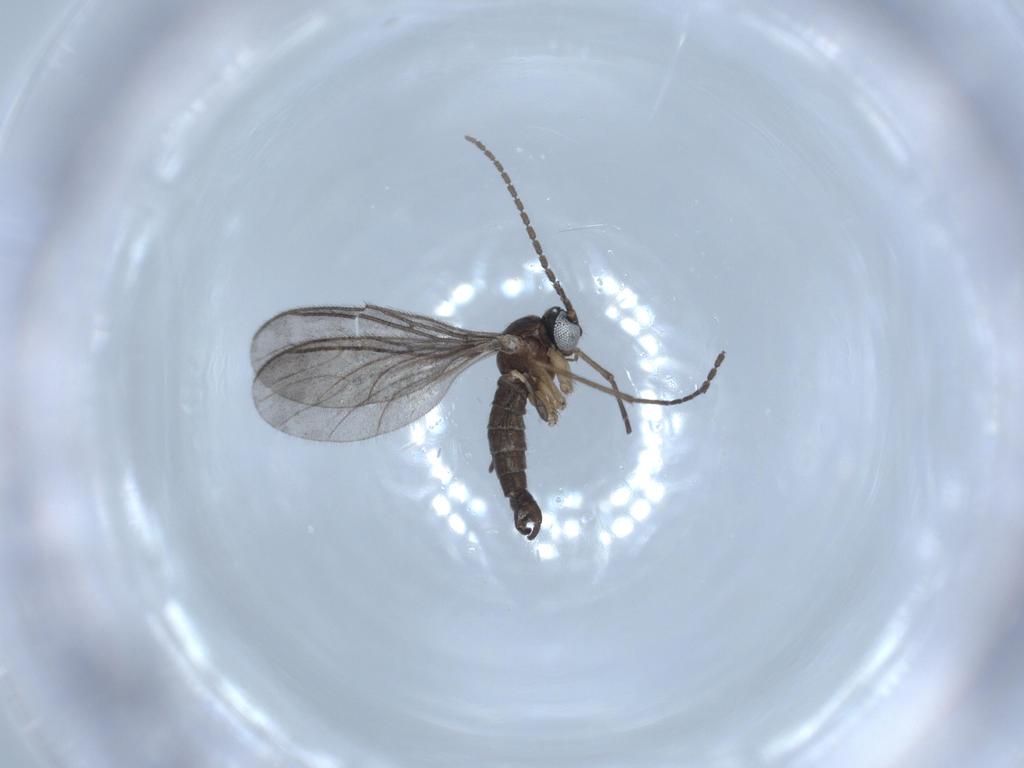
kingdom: Animalia
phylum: Arthropoda
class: Insecta
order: Diptera
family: Sciaridae
